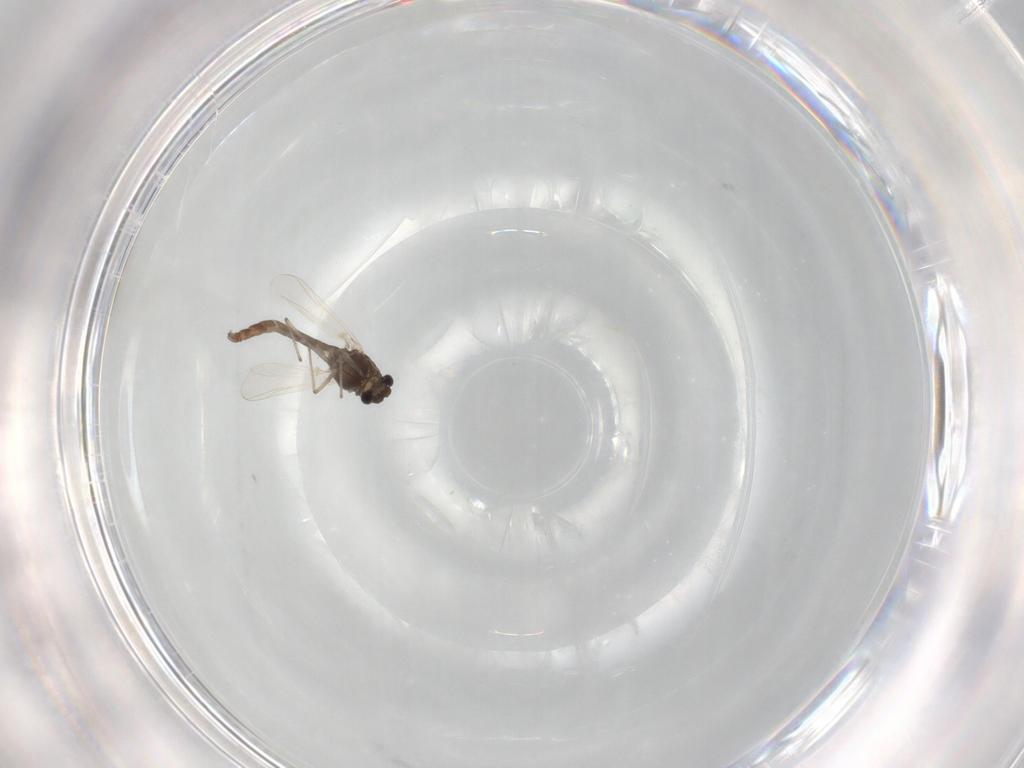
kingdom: Animalia
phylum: Arthropoda
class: Insecta
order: Diptera
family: Chironomidae
